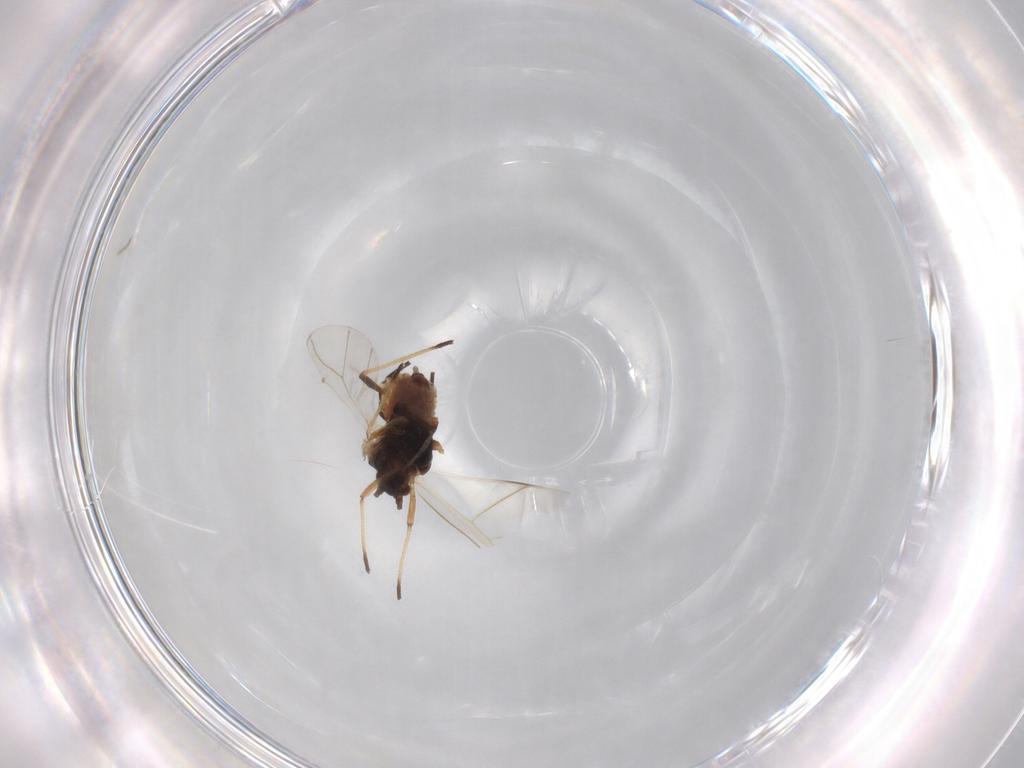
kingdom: Animalia
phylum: Arthropoda
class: Insecta
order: Hemiptera
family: Aphididae
